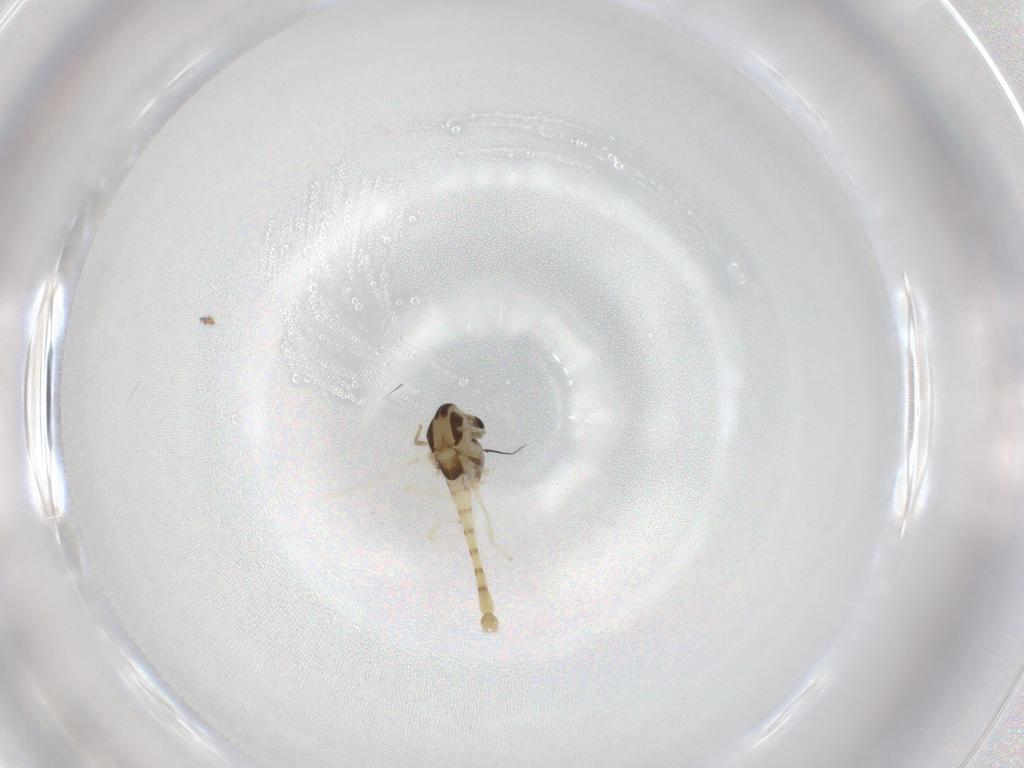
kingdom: Animalia
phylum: Arthropoda
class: Insecta
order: Diptera
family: Chironomidae
